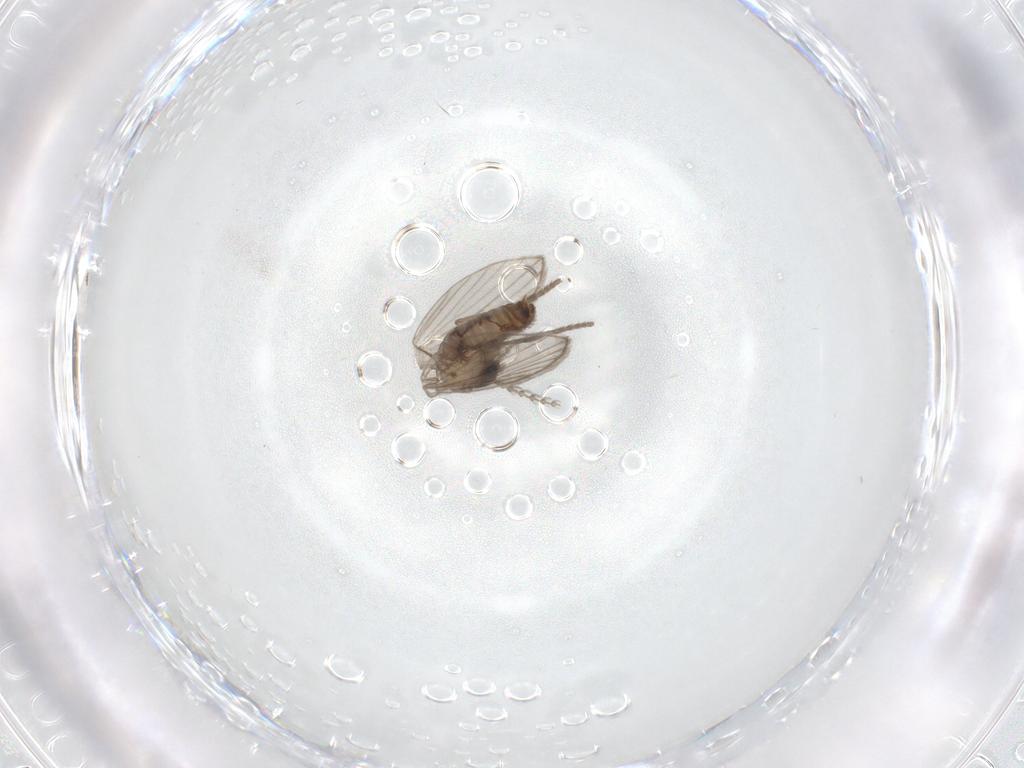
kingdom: Animalia
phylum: Arthropoda
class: Insecta
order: Diptera
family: Psychodidae
